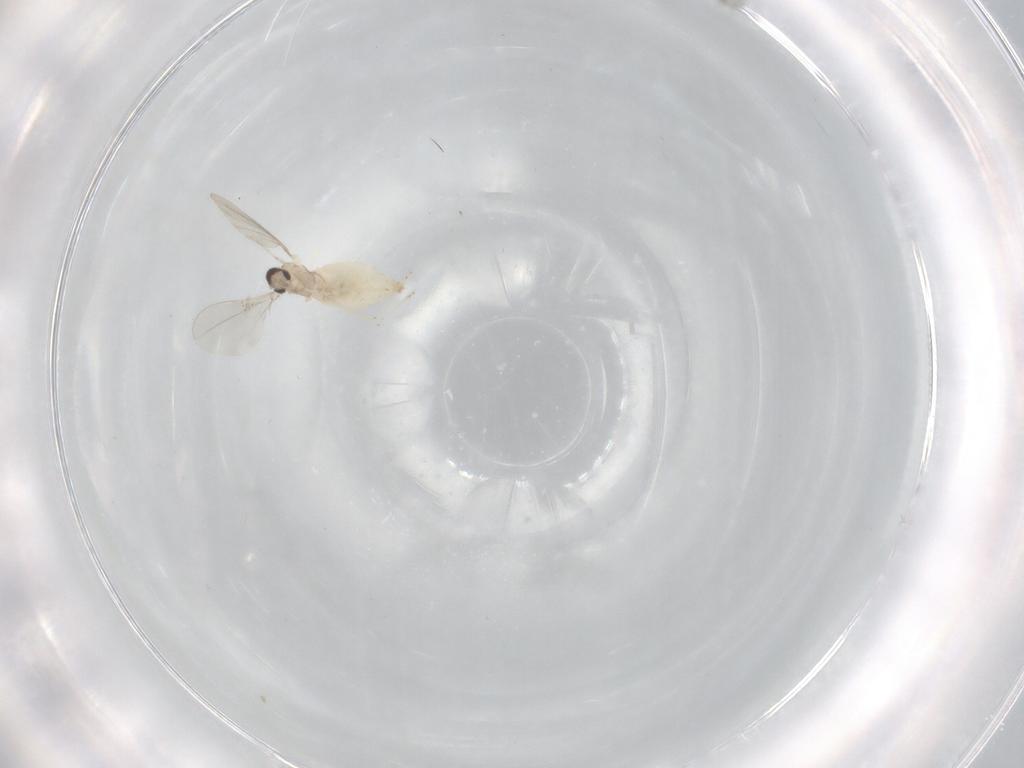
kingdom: Animalia
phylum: Arthropoda
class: Insecta
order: Diptera
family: Cecidomyiidae
